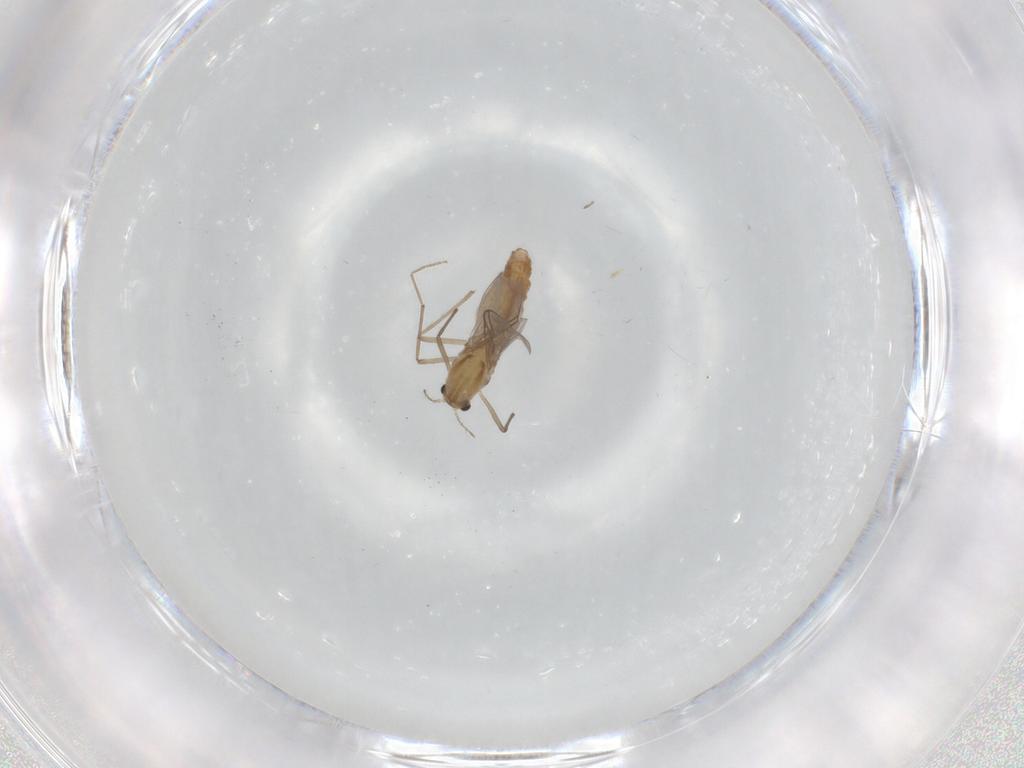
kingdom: Animalia
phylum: Arthropoda
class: Insecta
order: Diptera
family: Chironomidae
